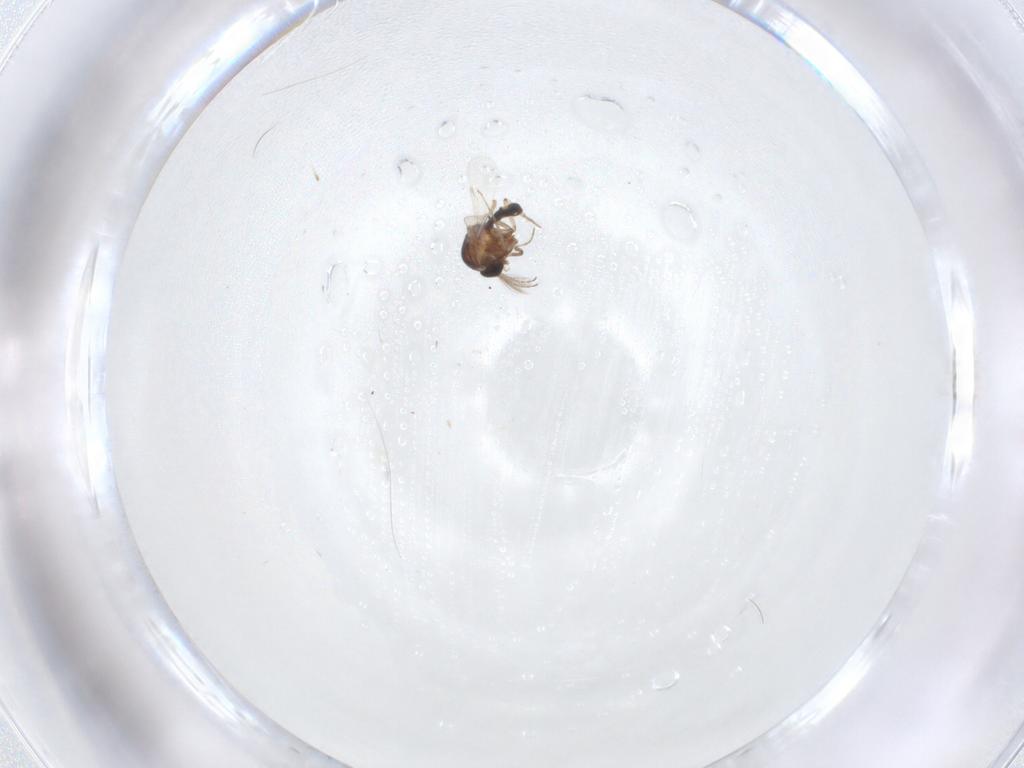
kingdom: Animalia
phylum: Arthropoda
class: Insecta
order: Diptera
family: Ceratopogonidae
